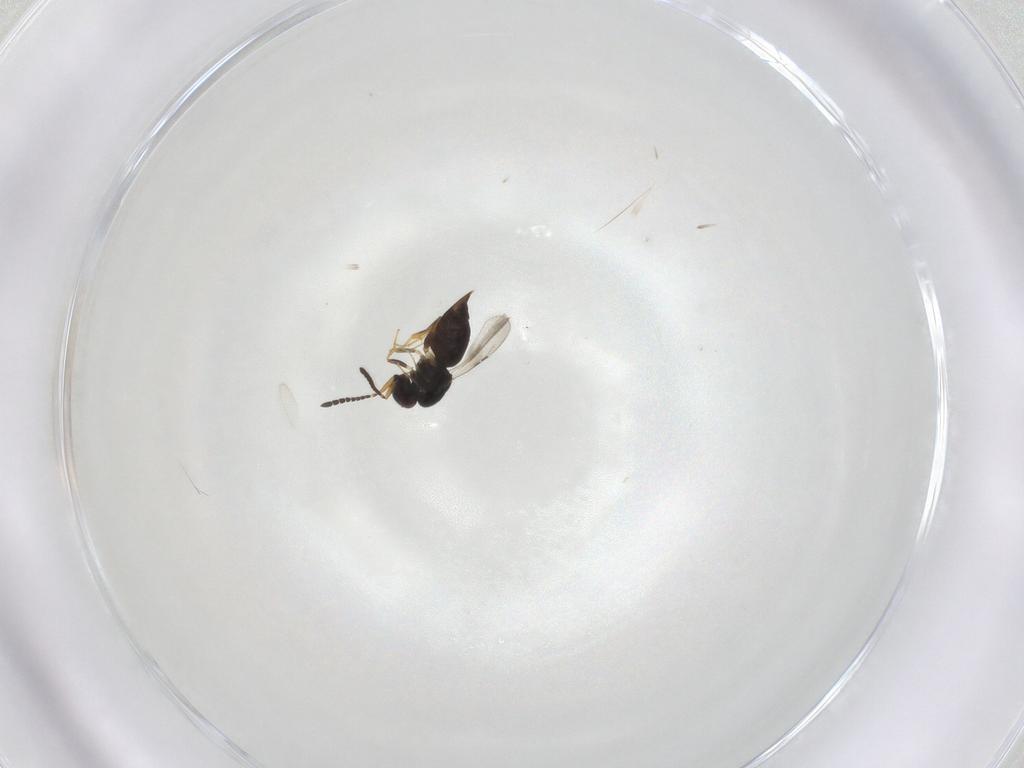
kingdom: Animalia
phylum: Arthropoda
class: Insecta
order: Hymenoptera
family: Ceraphronidae
